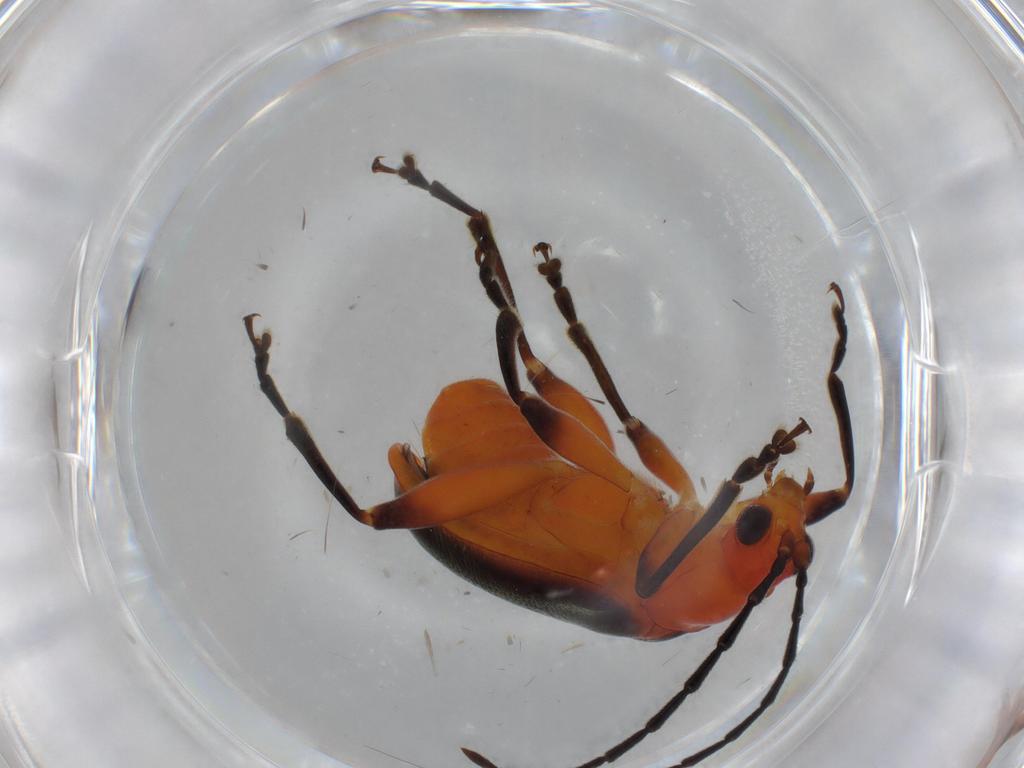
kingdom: Animalia
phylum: Arthropoda
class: Insecta
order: Coleoptera
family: Chrysomelidae
